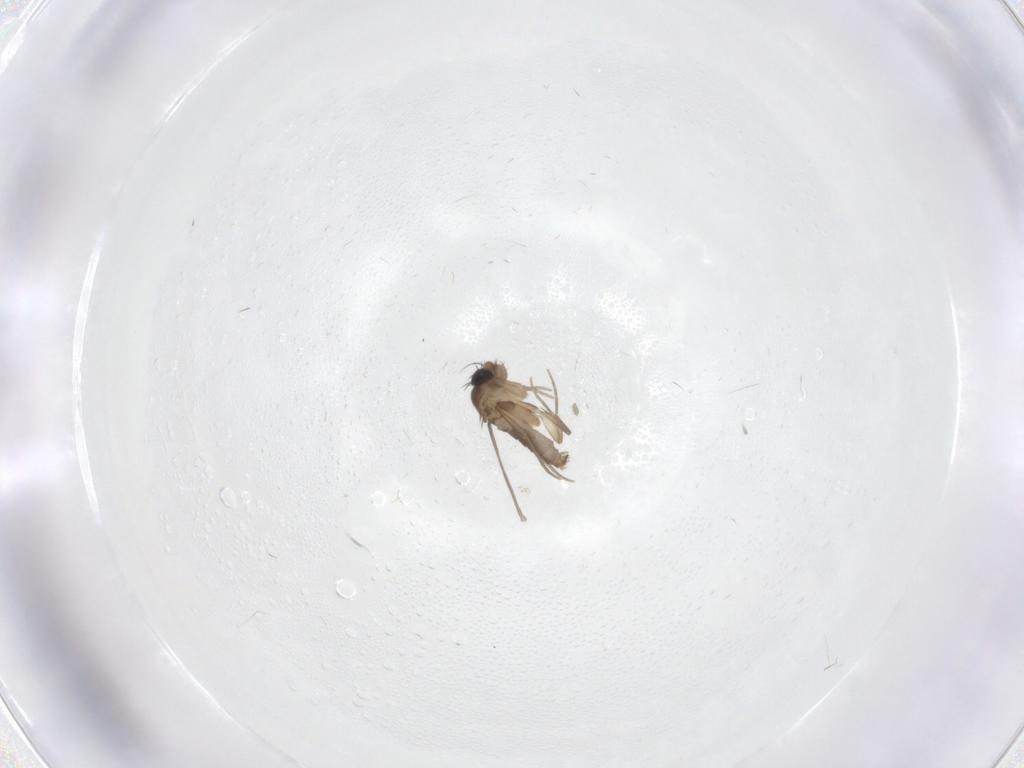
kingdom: Animalia
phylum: Arthropoda
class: Insecta
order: Diptera
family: Phoridae
